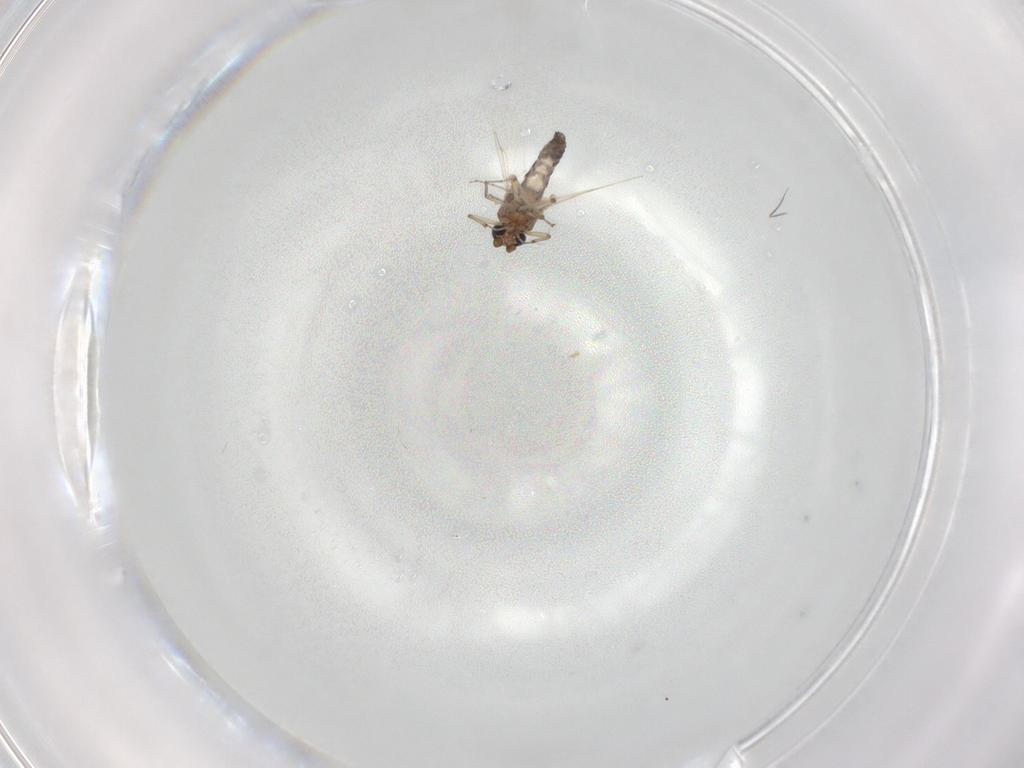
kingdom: Animalia
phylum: Arthropoda
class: Insecta
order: Diptera
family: Ceratopogonidae
